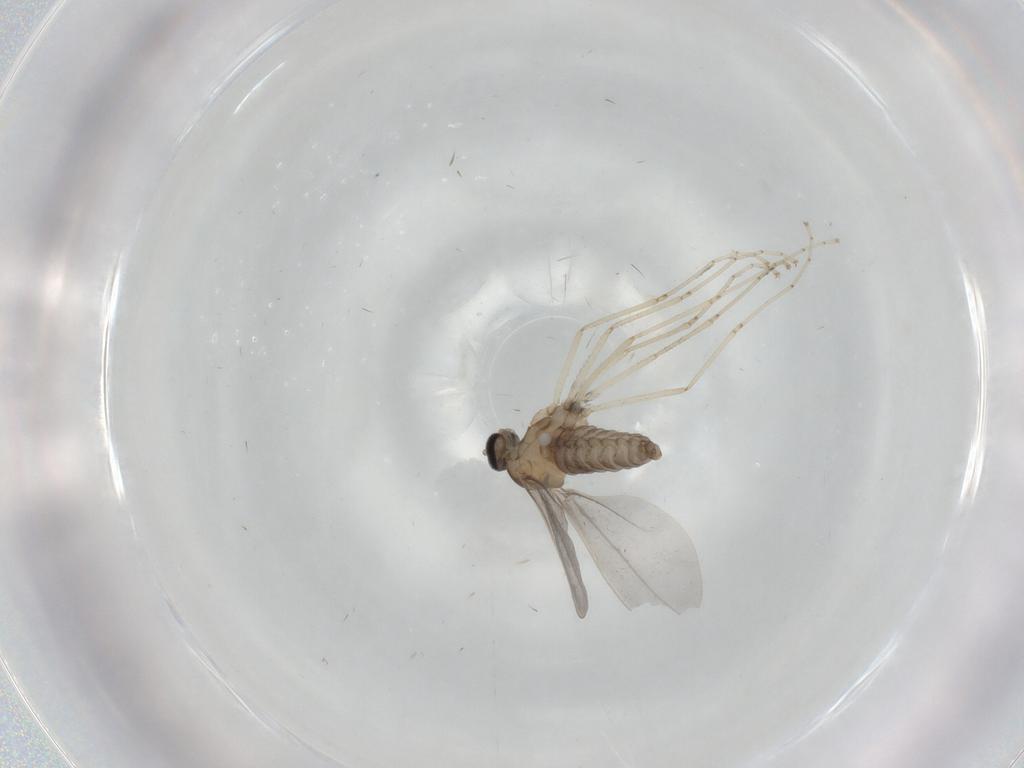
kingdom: Animalia
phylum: Arthropoda
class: Insecta
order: Diptera
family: Cecidomyiidae
